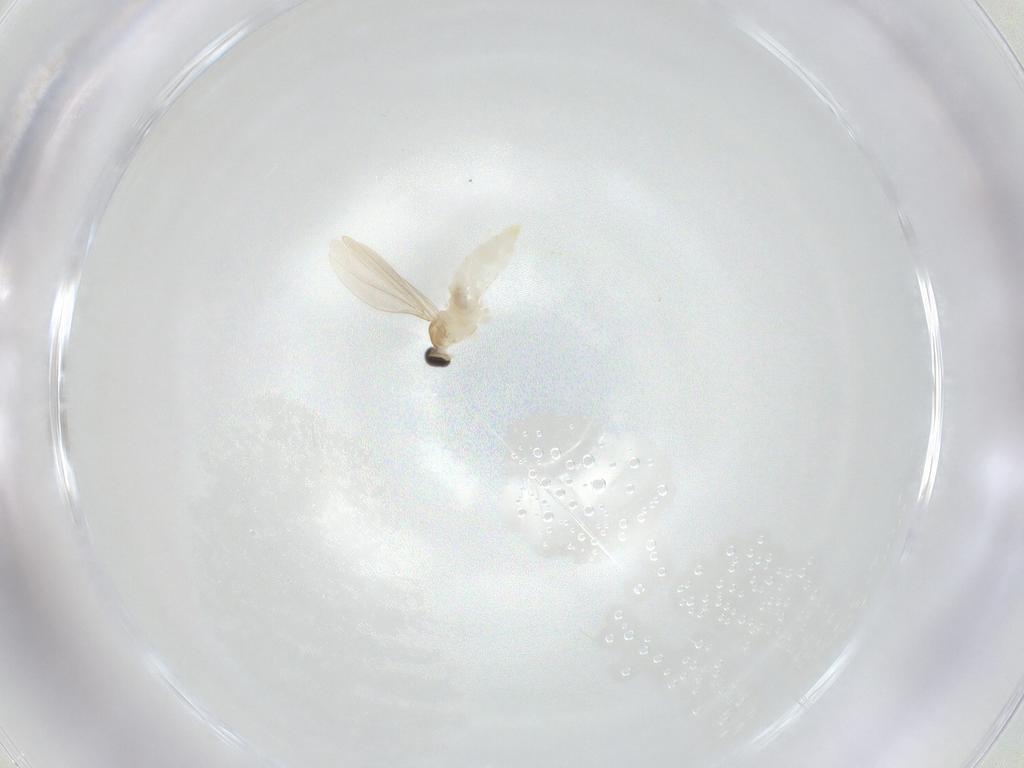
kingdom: Animalia
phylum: Arthropoda
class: Insecta
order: Diptera
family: Cecidomyiidae
